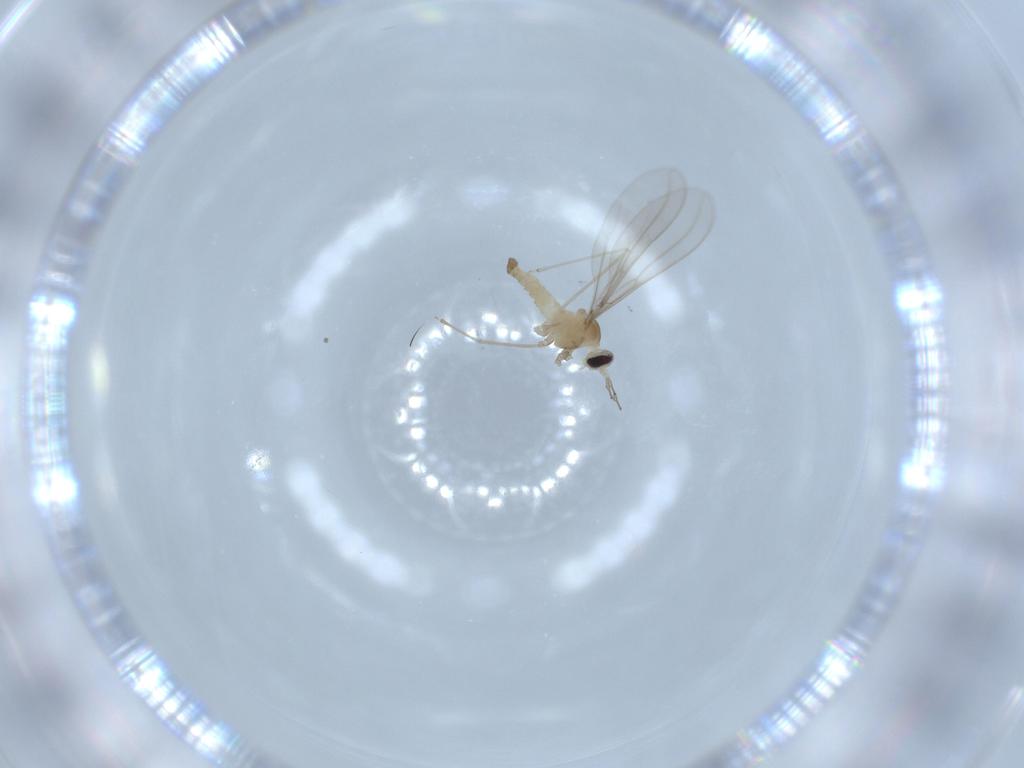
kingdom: Animalia
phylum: Arthropoda
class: Insecta
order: Diptera
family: Cecidomyiidae
